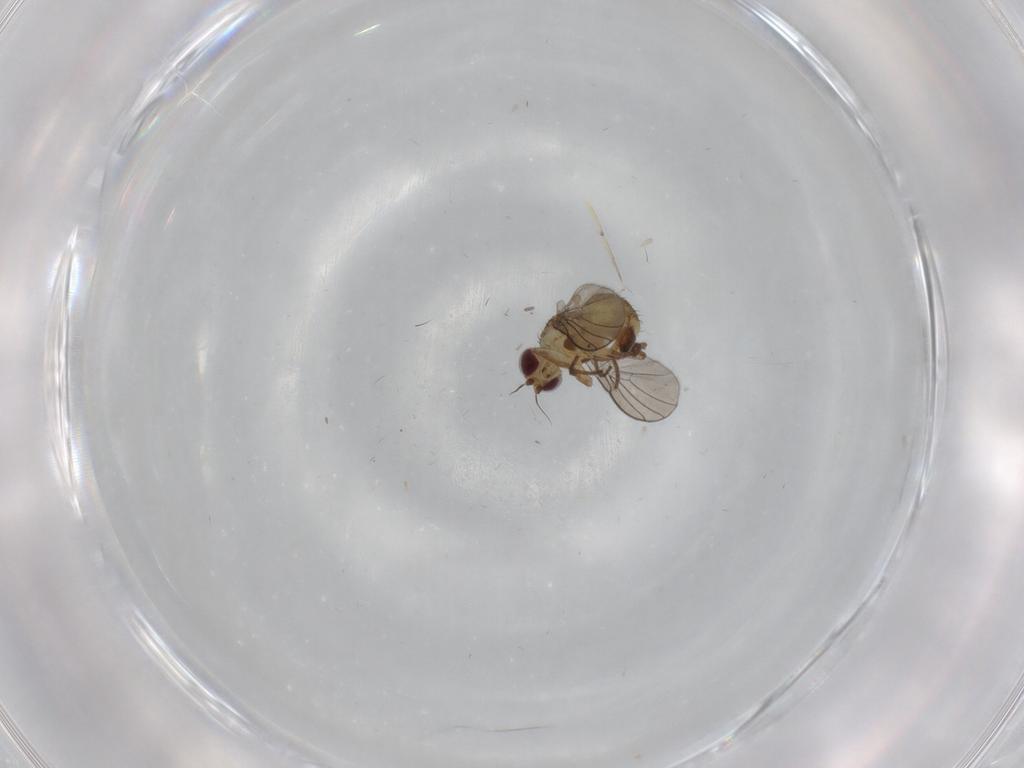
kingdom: Animalia
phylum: Arthropoda
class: Insecta
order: Diptera
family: Agromyzidae
